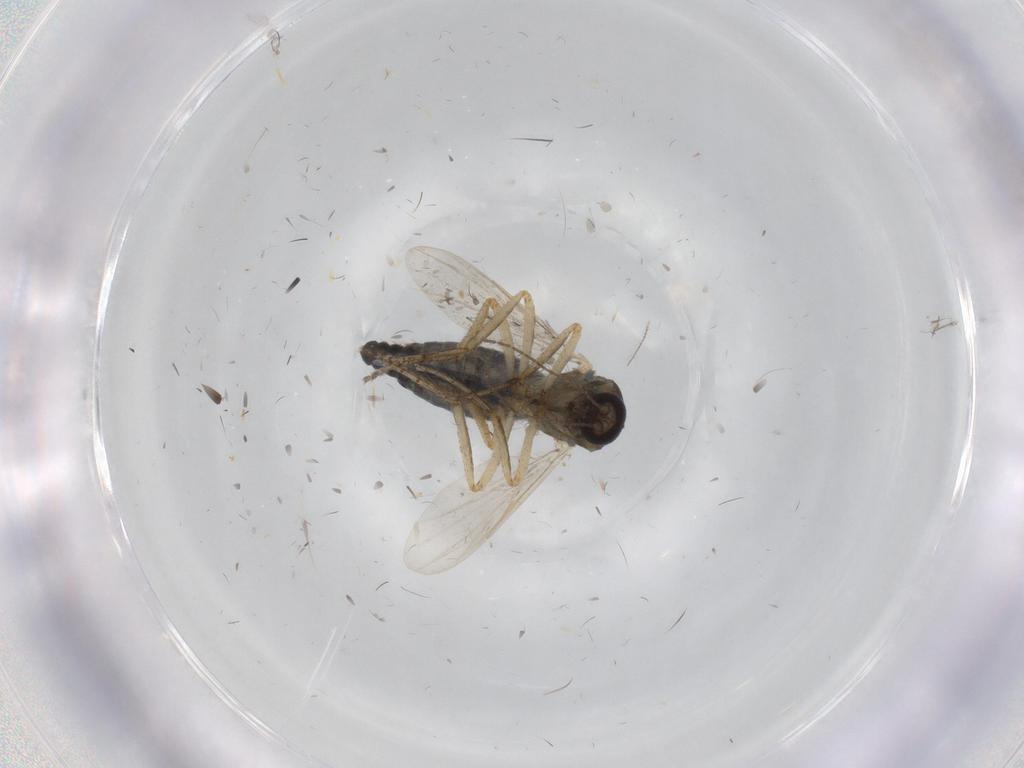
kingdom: Animalia
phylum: Arthropoda
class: Insecta
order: Diptera
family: Ceratopogonidae
